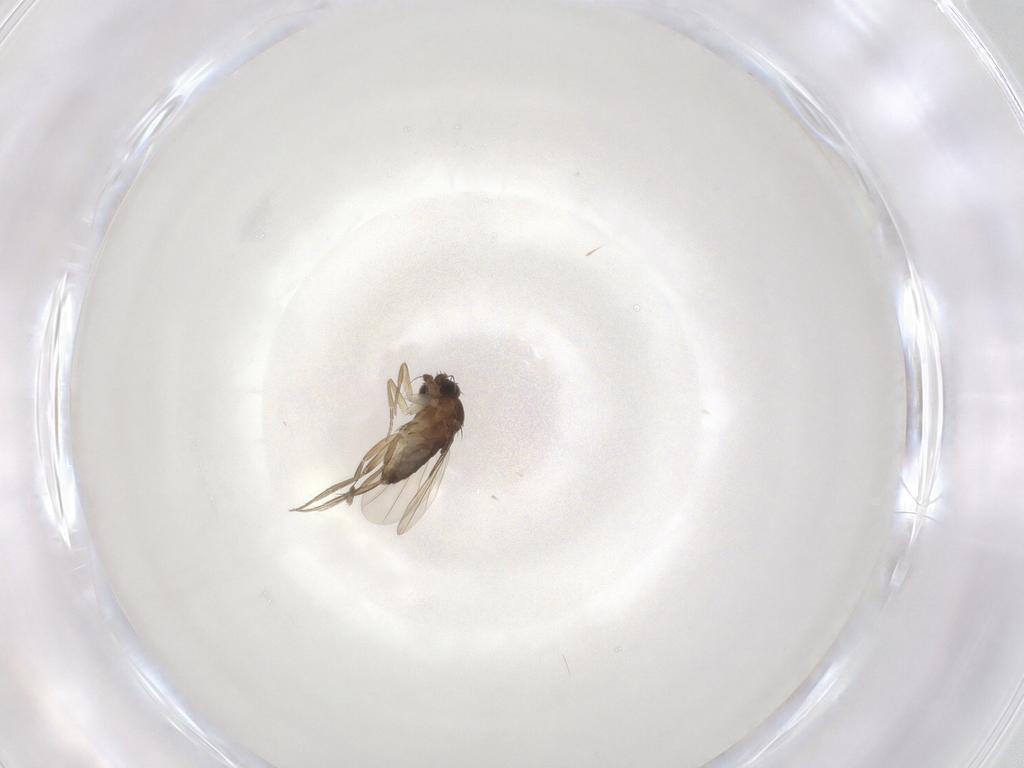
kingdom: Animalia
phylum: Arthropoda
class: Insecta
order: Diptera
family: Phoridae
